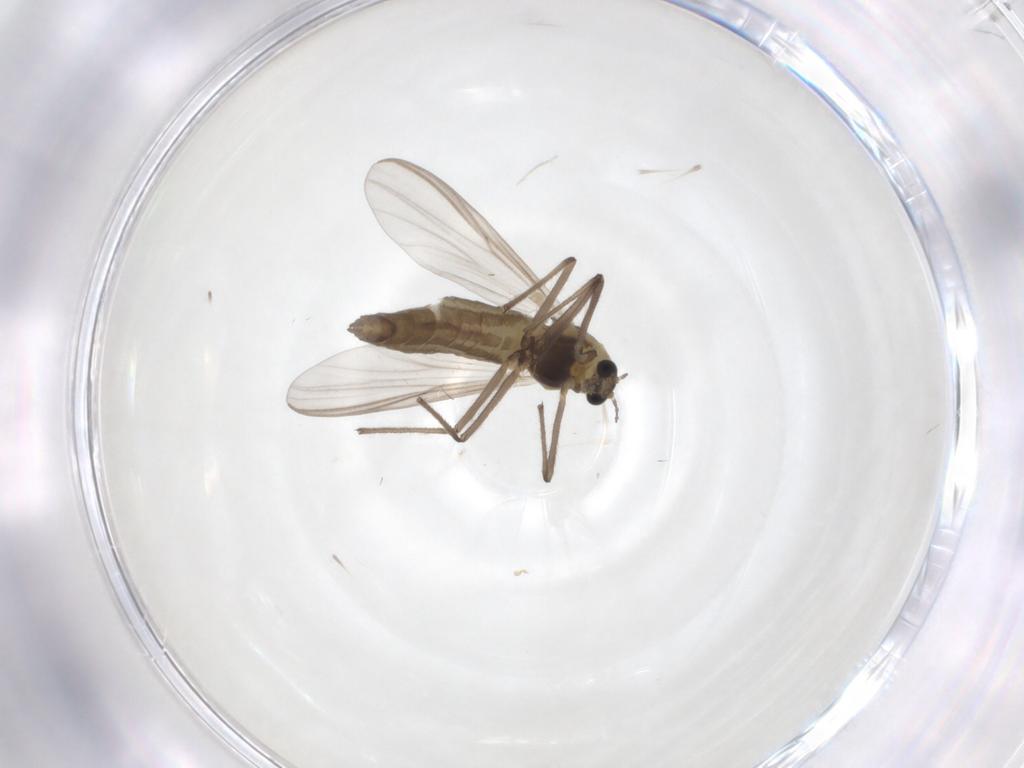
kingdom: Animalia
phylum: Arthropoda
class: Insecta
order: Diptera
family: Chironomidae
